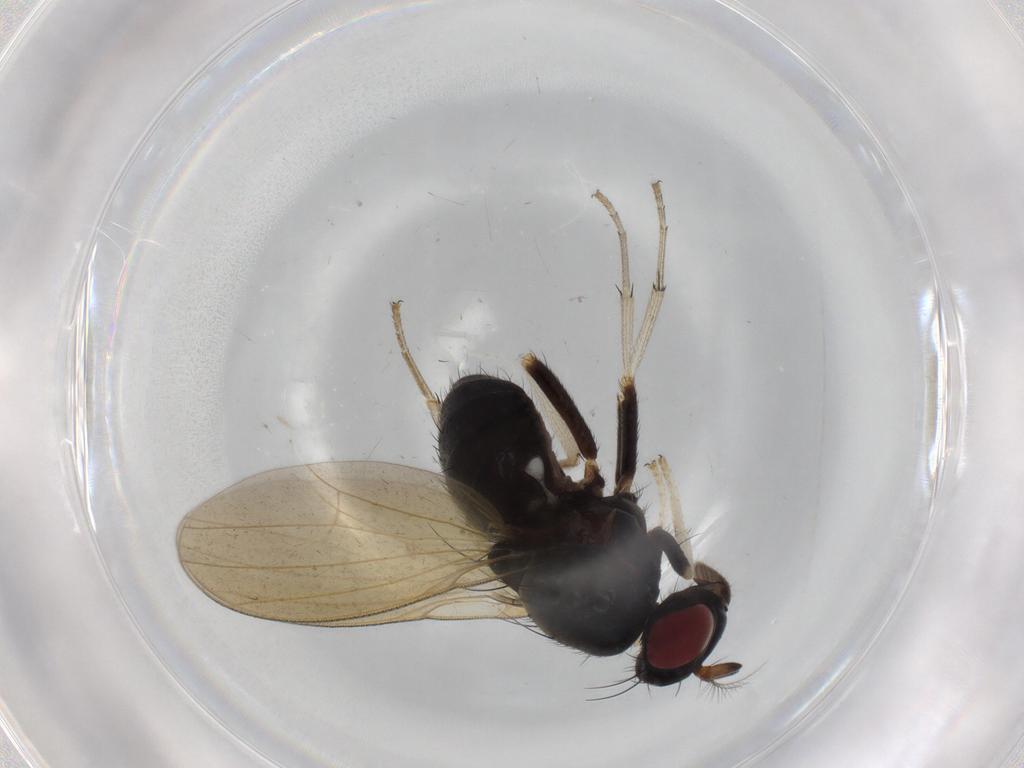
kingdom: Animalia
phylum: Arthropoda
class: Insecta
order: Diptera
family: Cecidomyiidae
